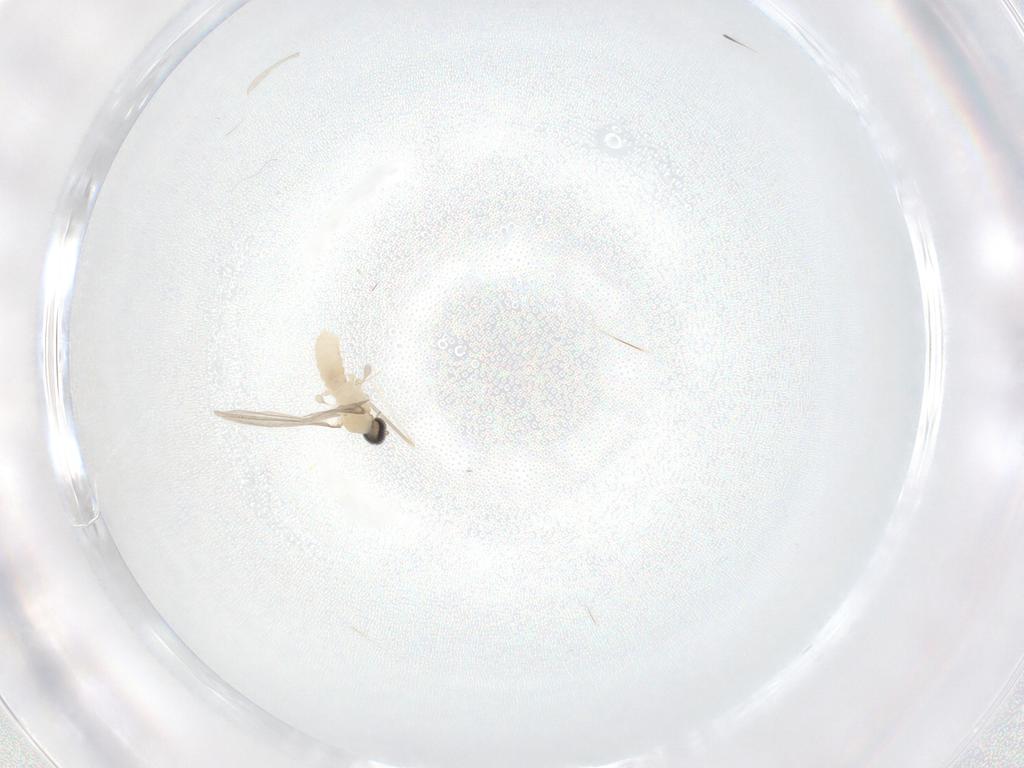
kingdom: Animalia
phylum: Arthropoda
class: Insecta
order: Diptera
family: Cecidomyiidae
